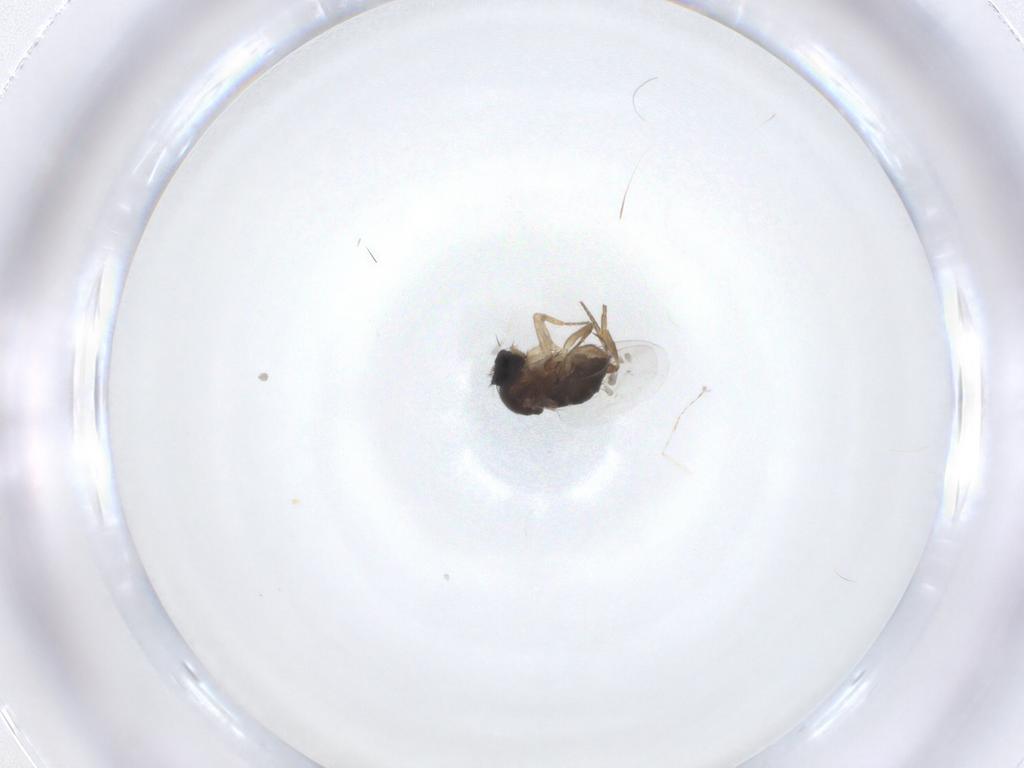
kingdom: Animalia
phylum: Arthropoda
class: Insecta
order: Diptera
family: Phoridae
